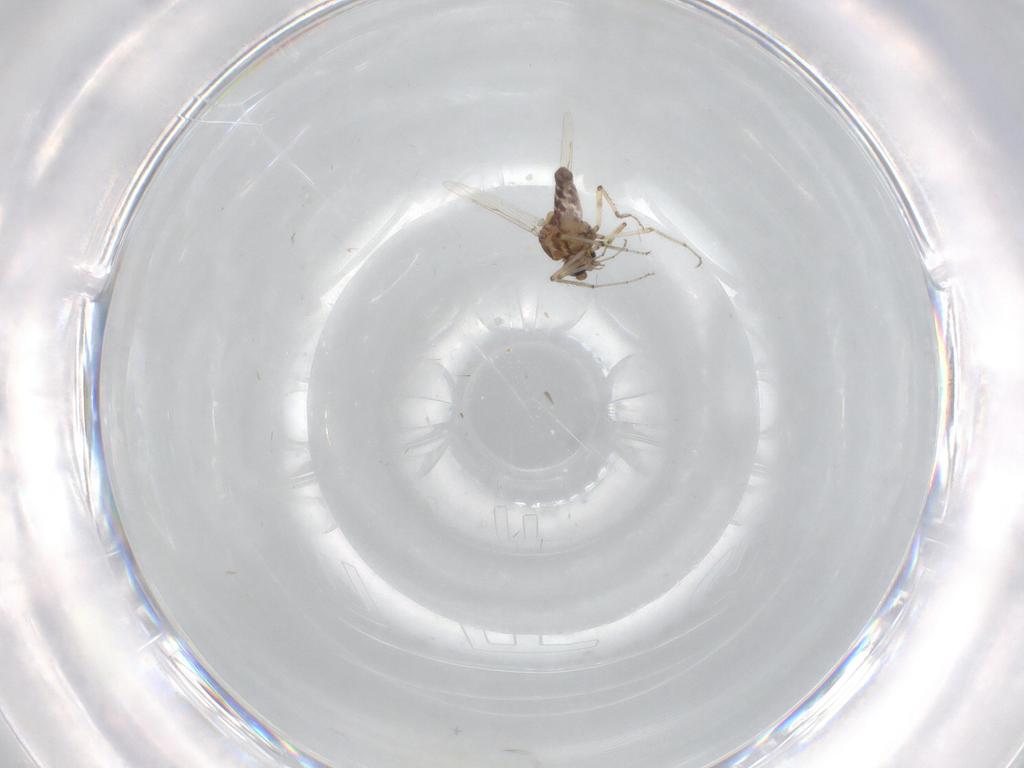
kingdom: Animalia
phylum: Arthropoda
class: Insecta
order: Diptera
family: Ceratopogonidae
